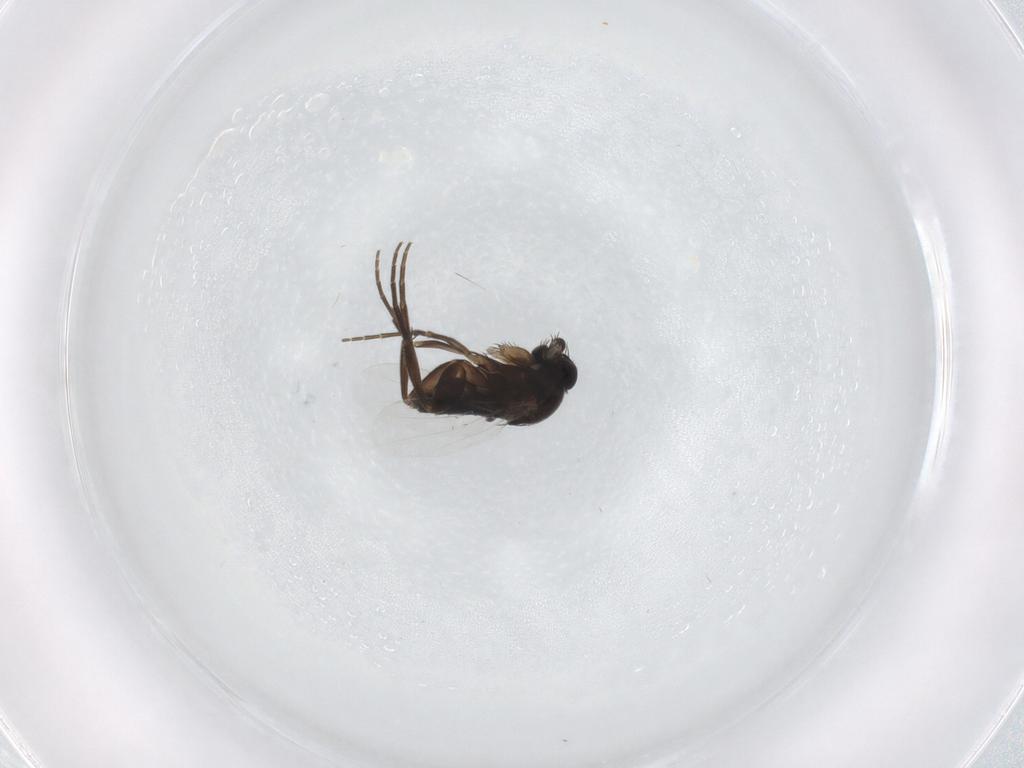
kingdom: Animalia
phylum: Arthropoda
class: Insecta
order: Diptera
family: Phoridae
